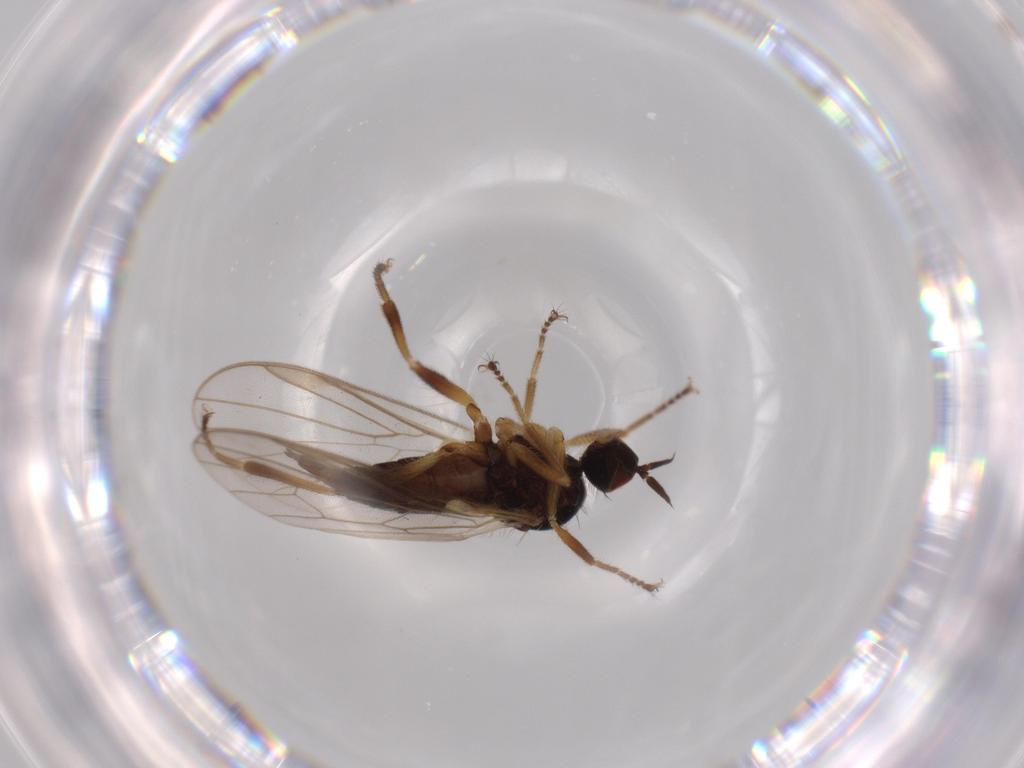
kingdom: Animalia
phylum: Arthropoda
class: Insecta
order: Diptera
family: Hybotidae
